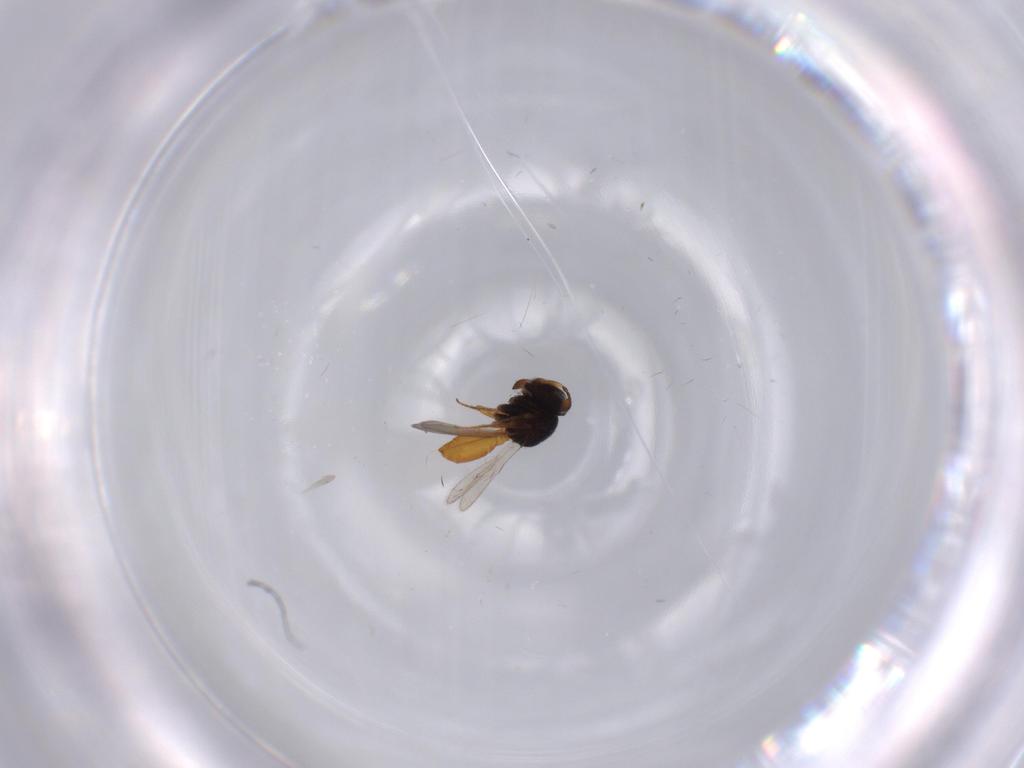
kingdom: Animalia
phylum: Arthropoda
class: Insecta
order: Hymenoptera
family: Scelionidae
